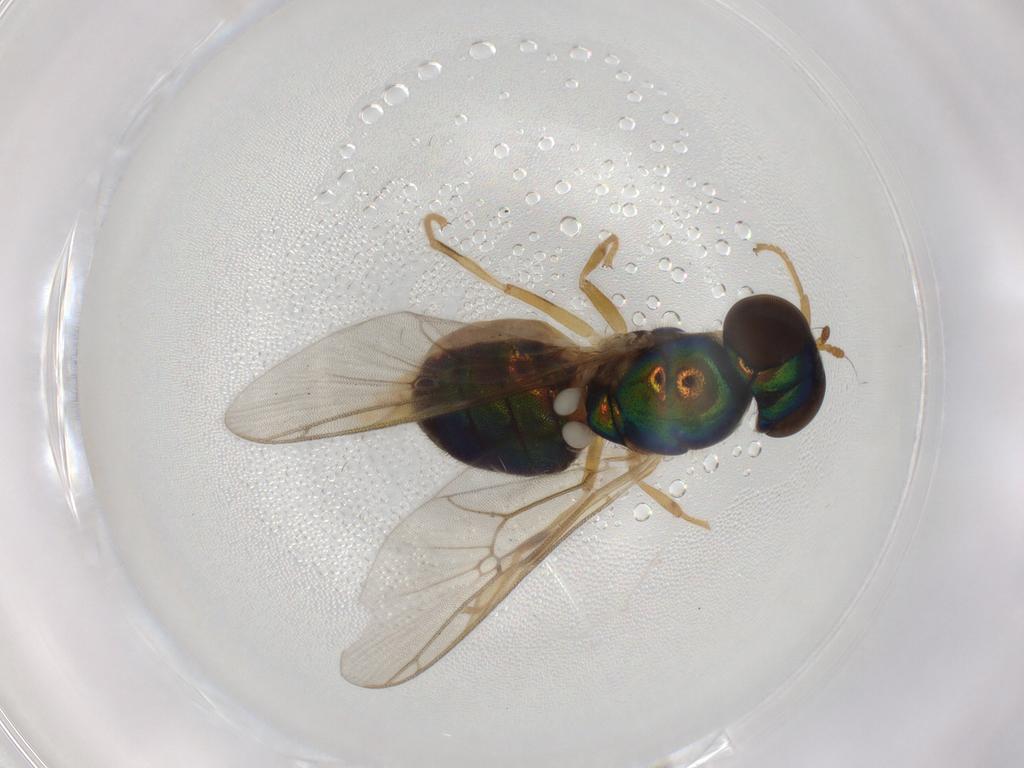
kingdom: Animalia
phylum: Arthropoda
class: Insecta
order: Diptera
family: Stratiomyidae
